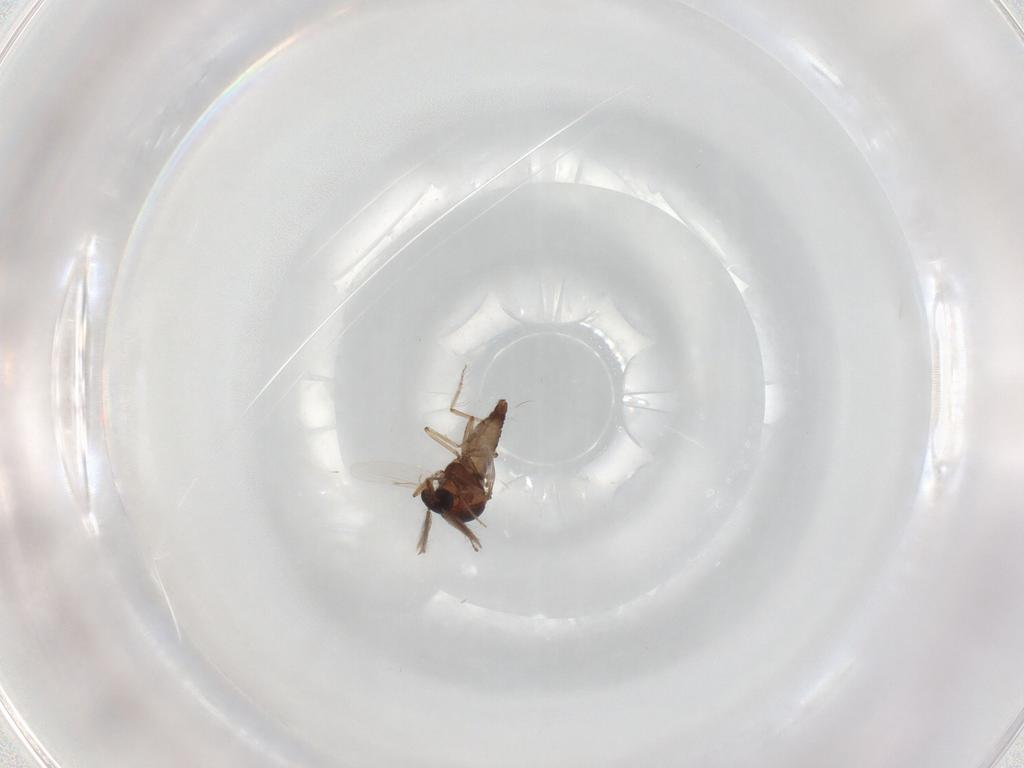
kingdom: Animalia
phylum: Arthropoda
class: Insecta
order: Diptera
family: Ceratopogonidae
